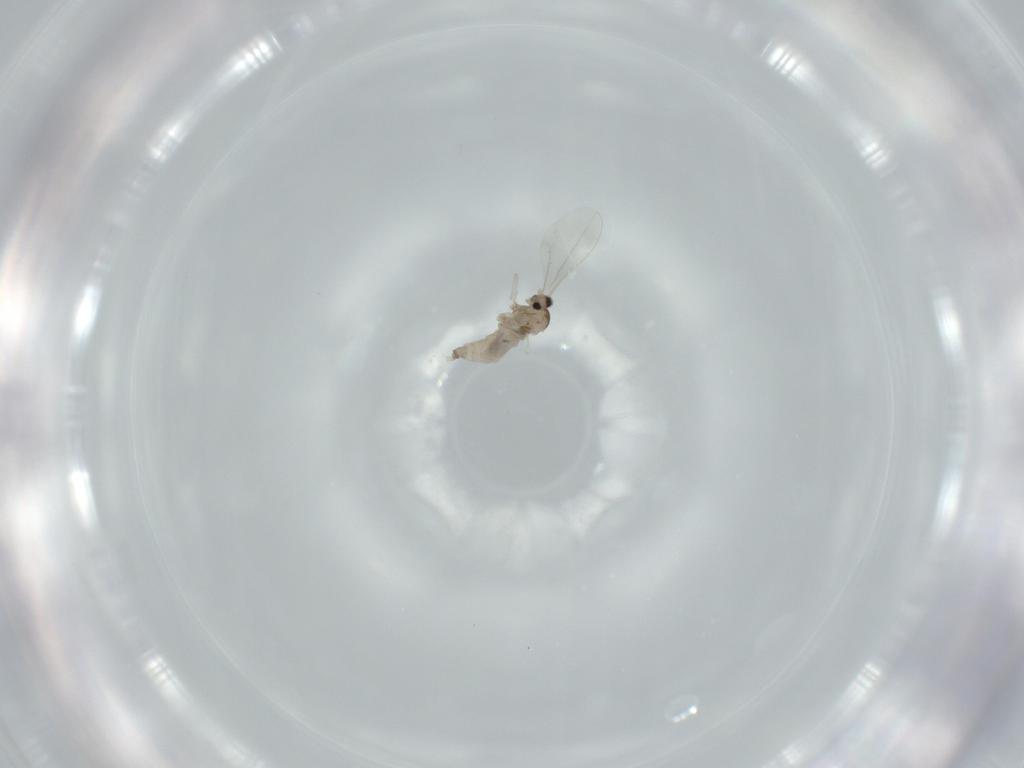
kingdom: Animalia
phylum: Arthropoda
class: Insecta
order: Diptera
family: Cecidomyiidae
